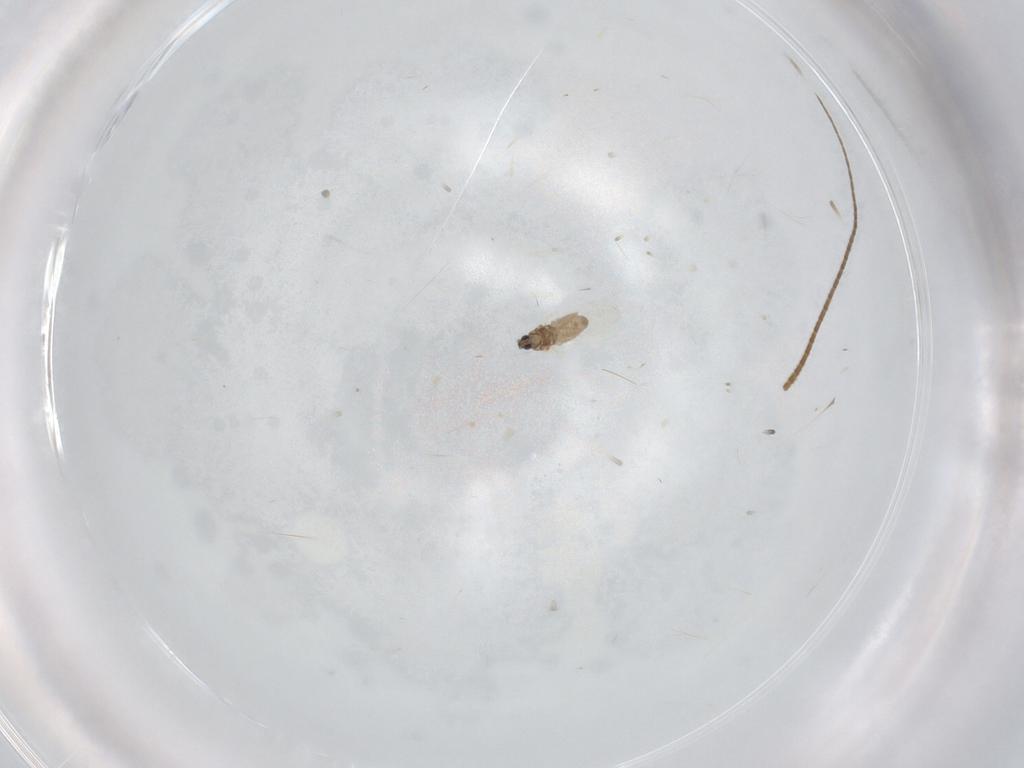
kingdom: Animalia
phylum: Arthropoda
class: Insecta
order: Diptera
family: Cecidomyiidae
